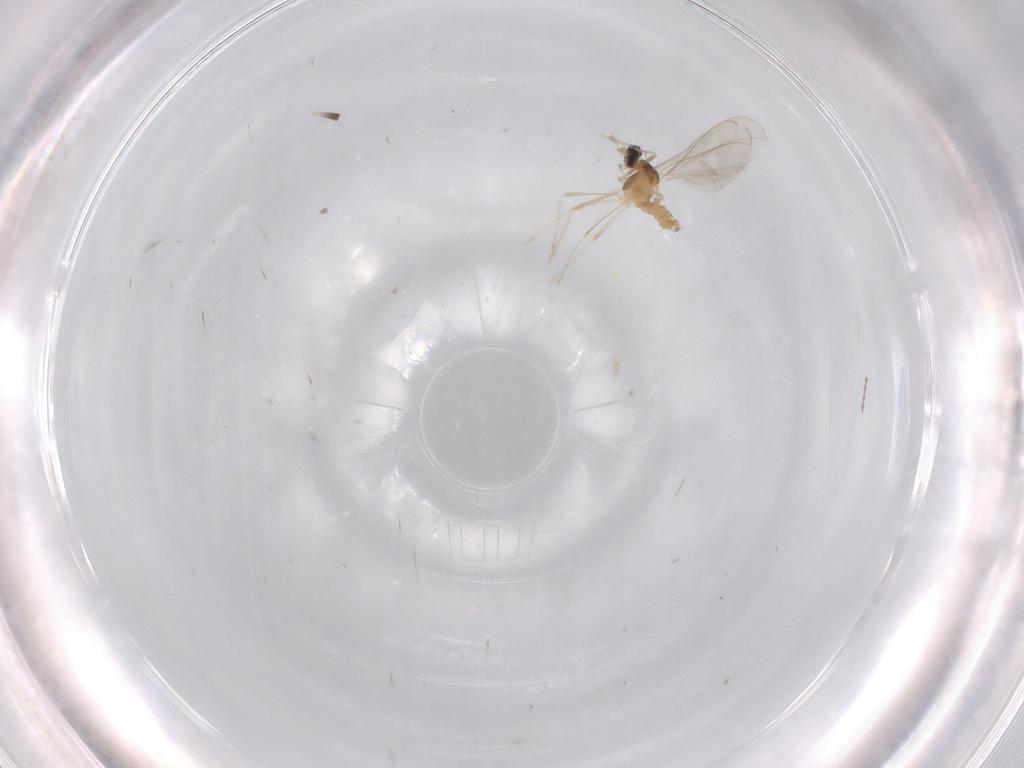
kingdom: Animalia
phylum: Arthropoda
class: Insecta
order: Diptera
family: Cecidomyiidae
